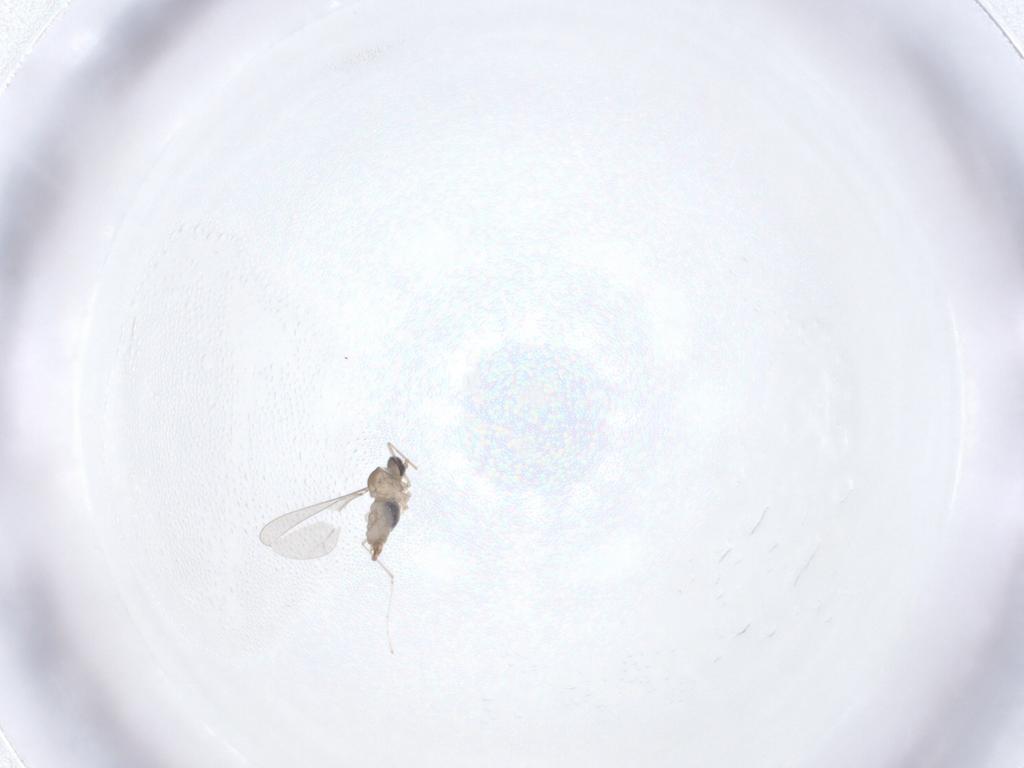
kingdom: Animalia
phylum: Arthropoda
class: Insecta
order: Diptera
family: Cecidomyiidae
